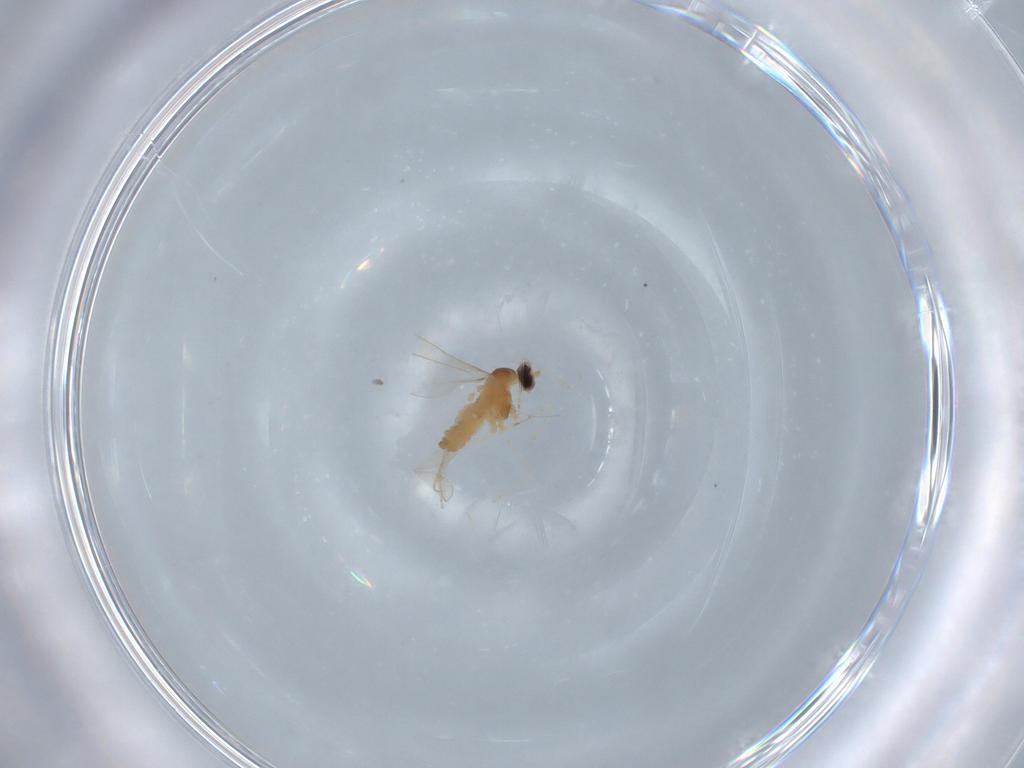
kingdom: Animalia
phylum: Arthropoda
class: Insecta
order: Diptera
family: Cecidomyiidae
